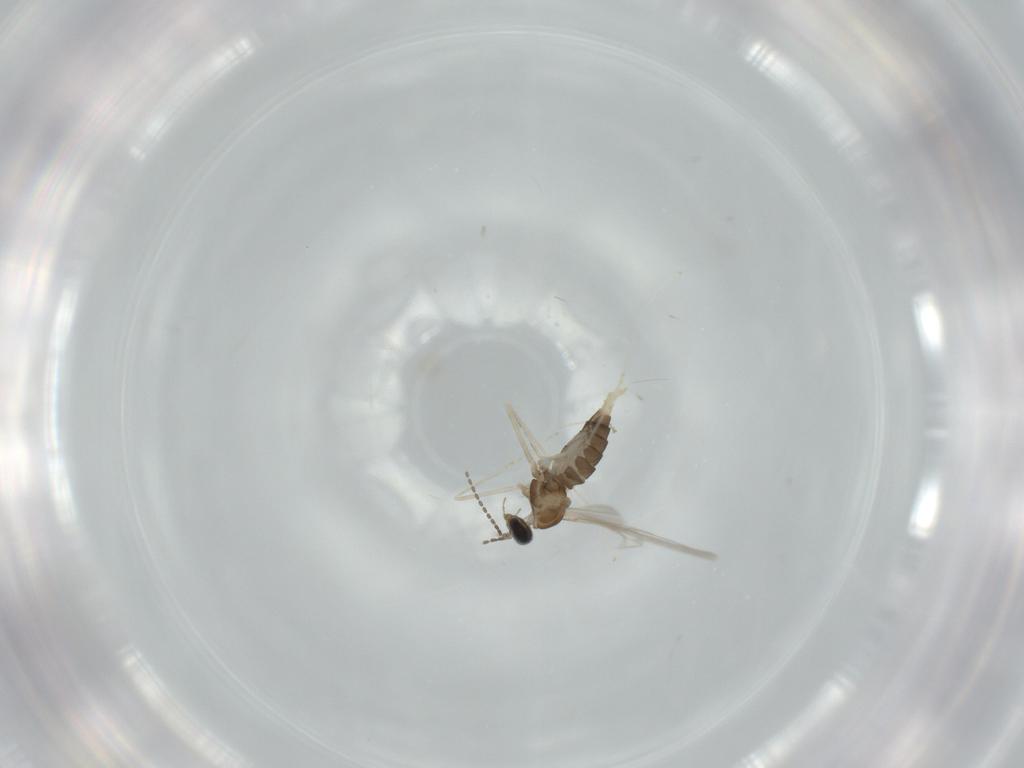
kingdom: Animalia
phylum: Arthropoda
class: Insecta
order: Diptera
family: Cecidomyiidae
